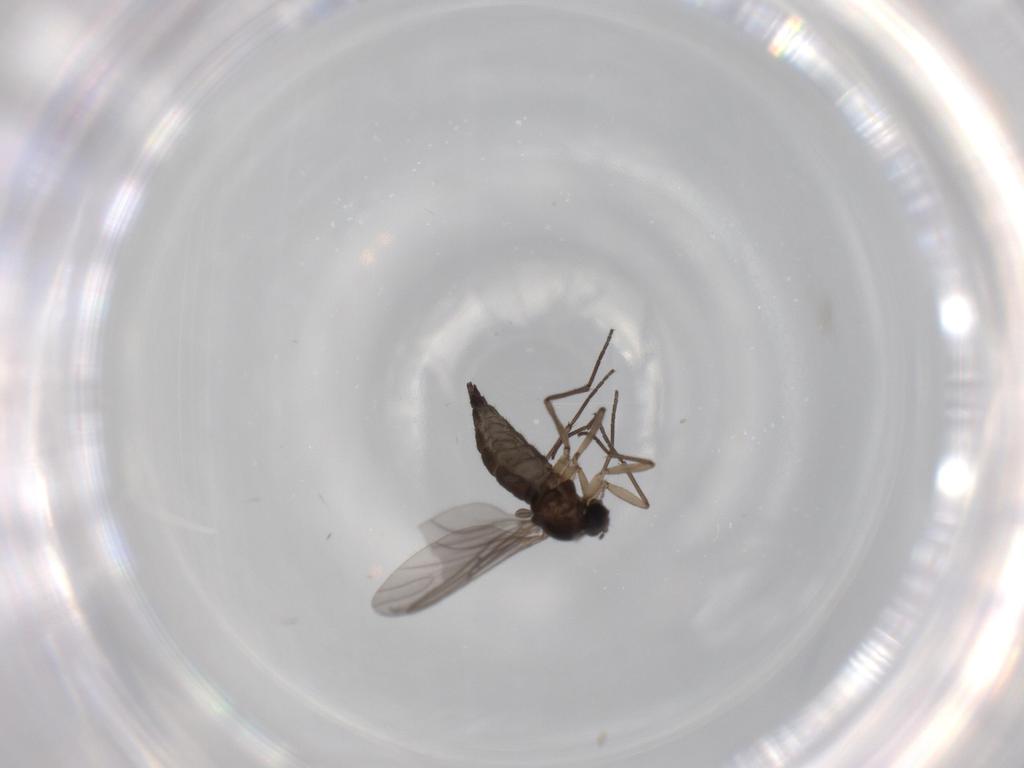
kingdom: Animalia
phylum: Arthropoda
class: Insecta
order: Diptera
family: Sciaridae
